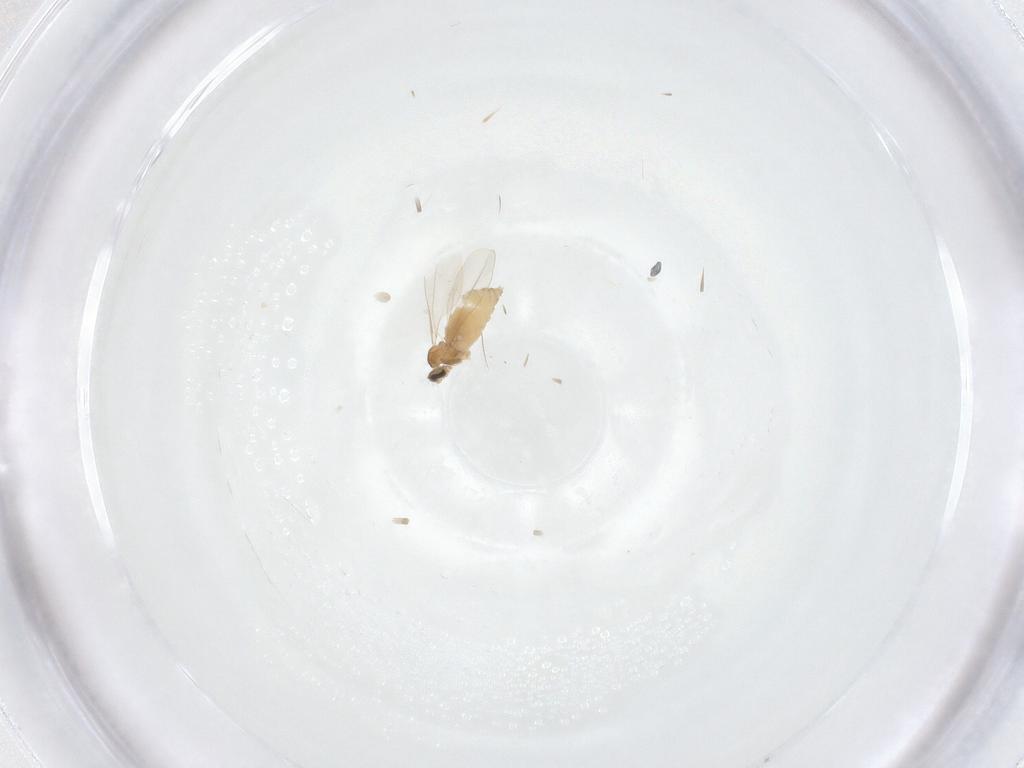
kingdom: Animalia
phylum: Arthropoda
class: Insecta
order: Diptera
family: Cecidomyiidae
